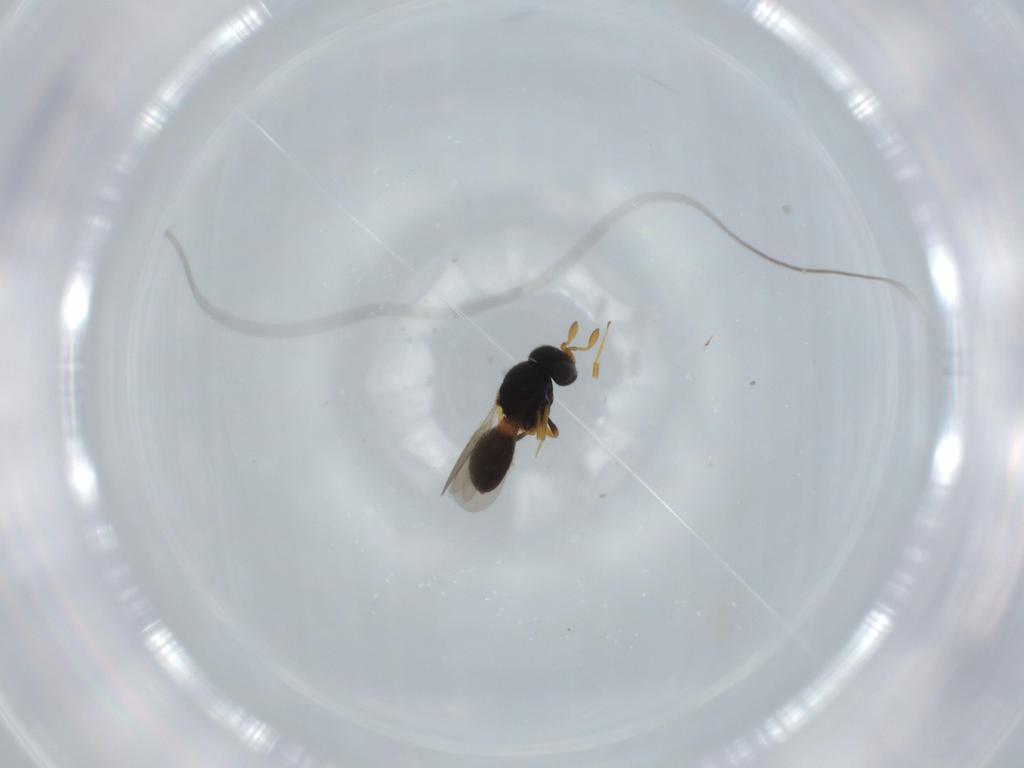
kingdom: Animalia
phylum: Arthropoda
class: Insecta
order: Hymenoptera
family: Scelionidae
